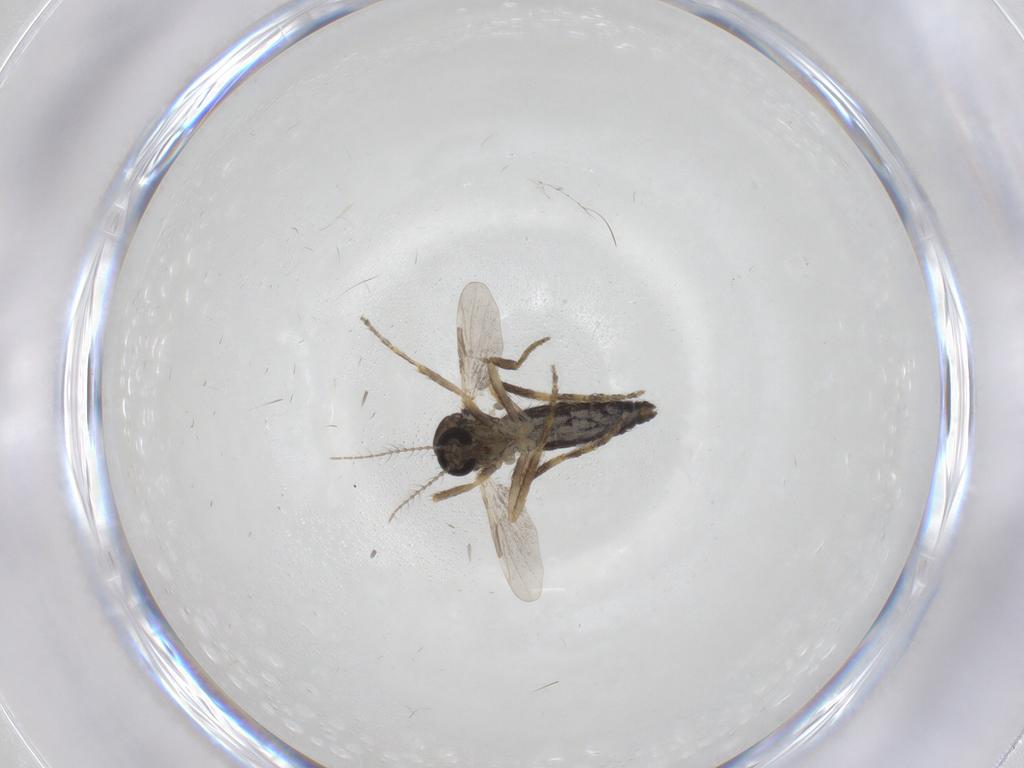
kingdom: Animalia
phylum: Arthropoda
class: Insecta
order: Diptera
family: Ceratopogonidae
